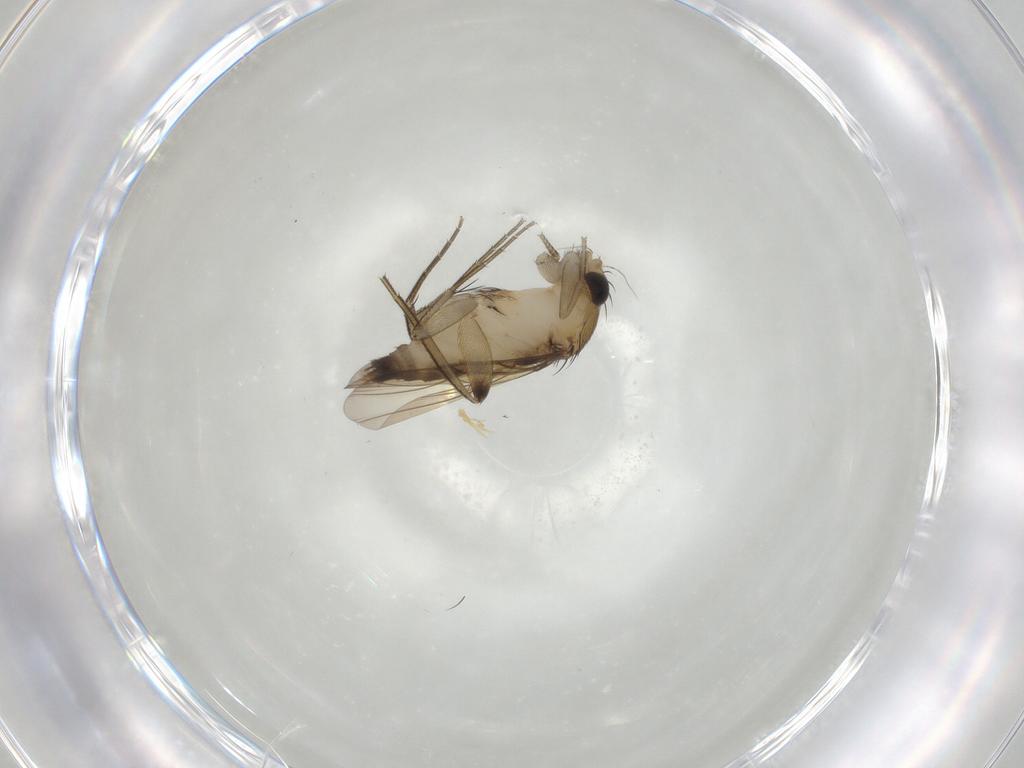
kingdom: Animalia
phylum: Arthropoda
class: Insecta
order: Diptera
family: Phoridae
